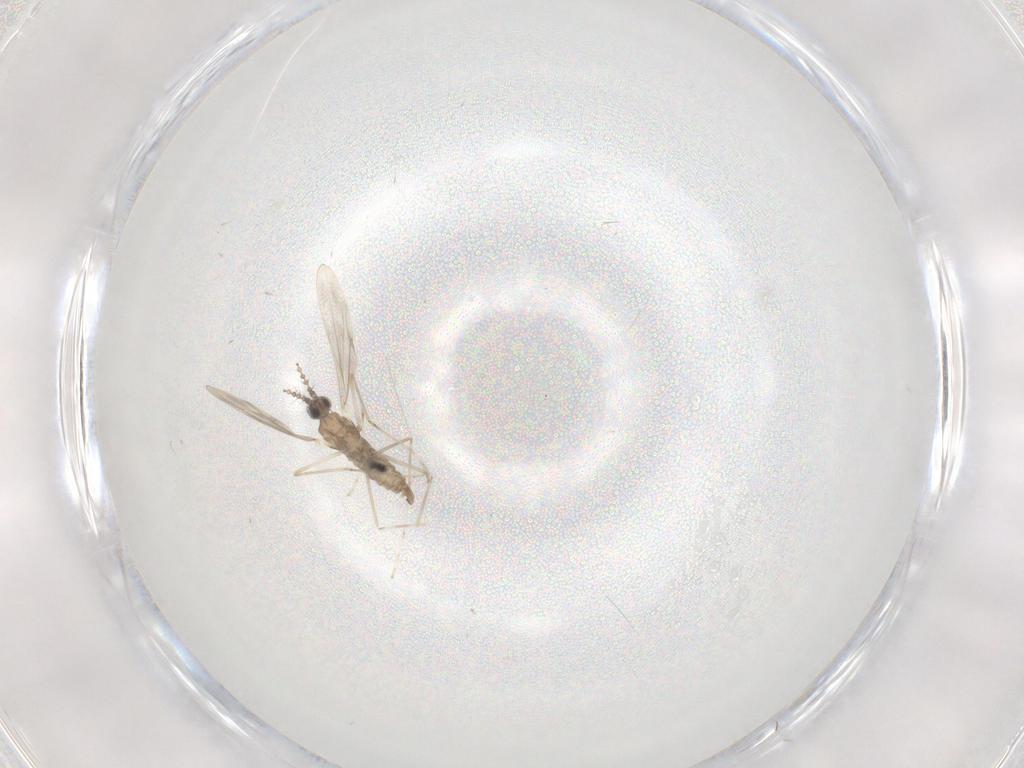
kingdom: Animalia
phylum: Arthropoda
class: Insecta
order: Diptera
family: Cecidomyiidae
